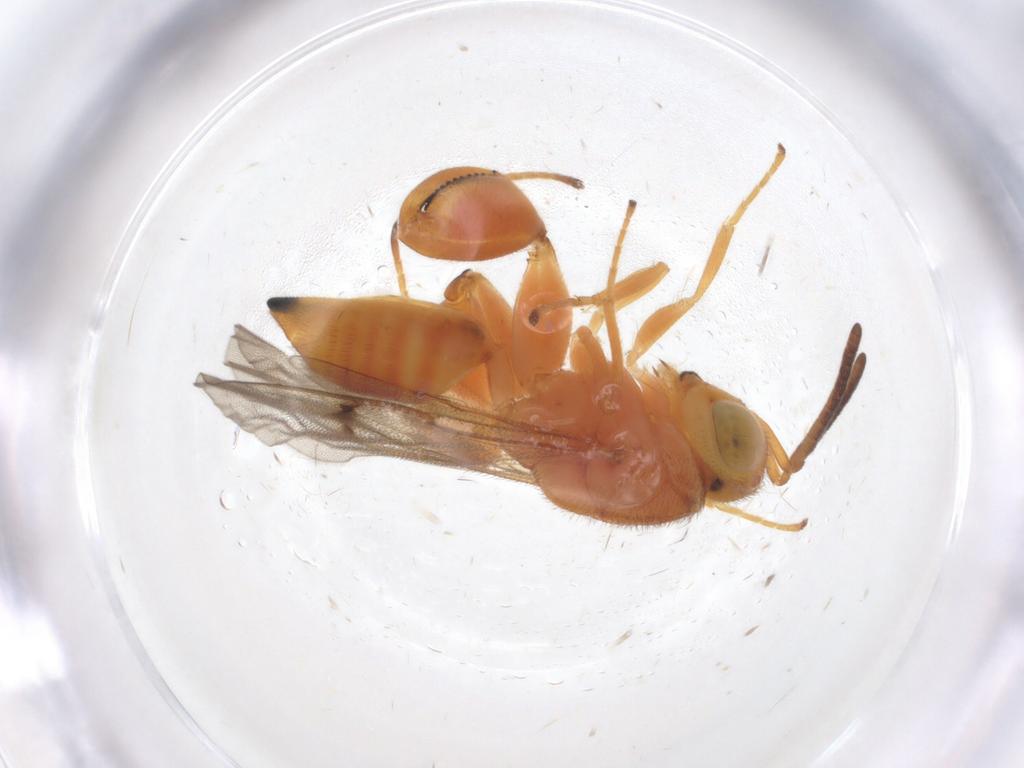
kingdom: Animalia
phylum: Arthropoda
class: Insecta
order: Hymenoptera
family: Chalcididae
